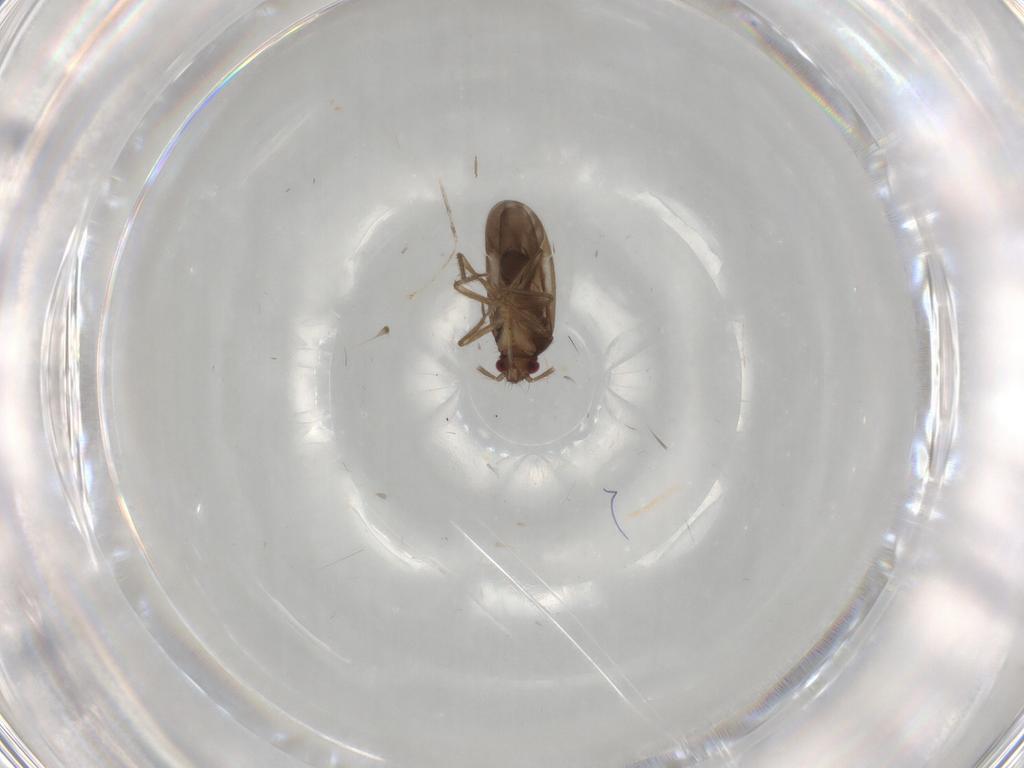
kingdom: Animalia
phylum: Arthropoda
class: Insecta
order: Hemiptera
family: Ceratocombidae
